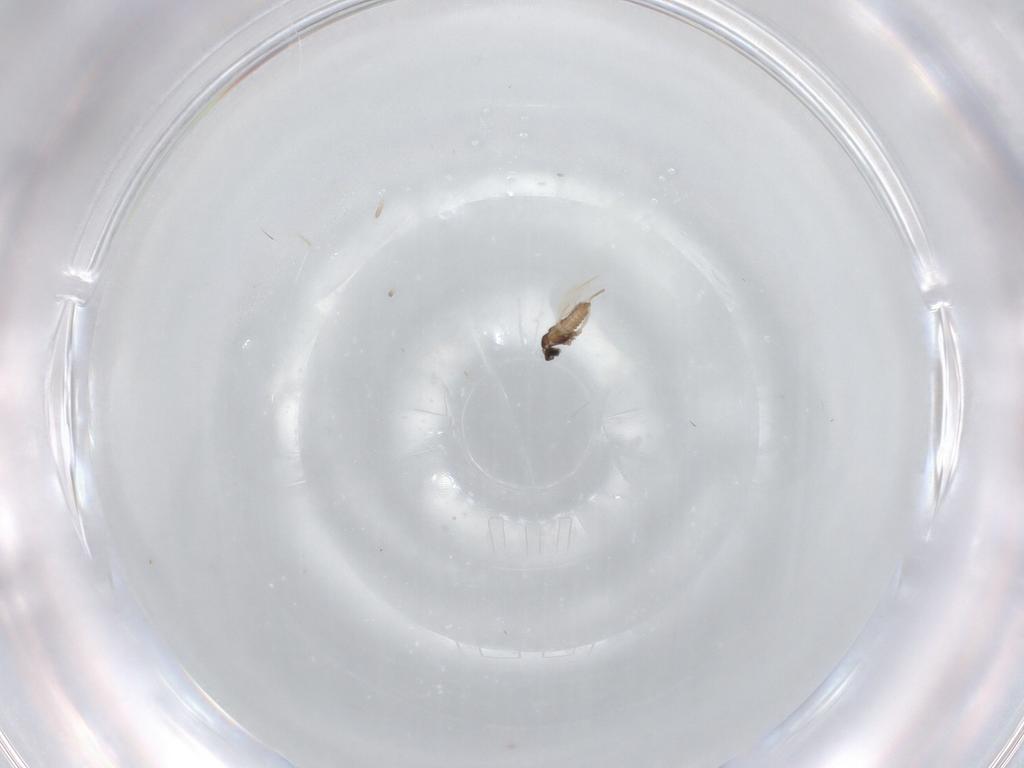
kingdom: Animalia
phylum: Arthropoda
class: Insecta
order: Diptera
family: Cecidomyiidae
